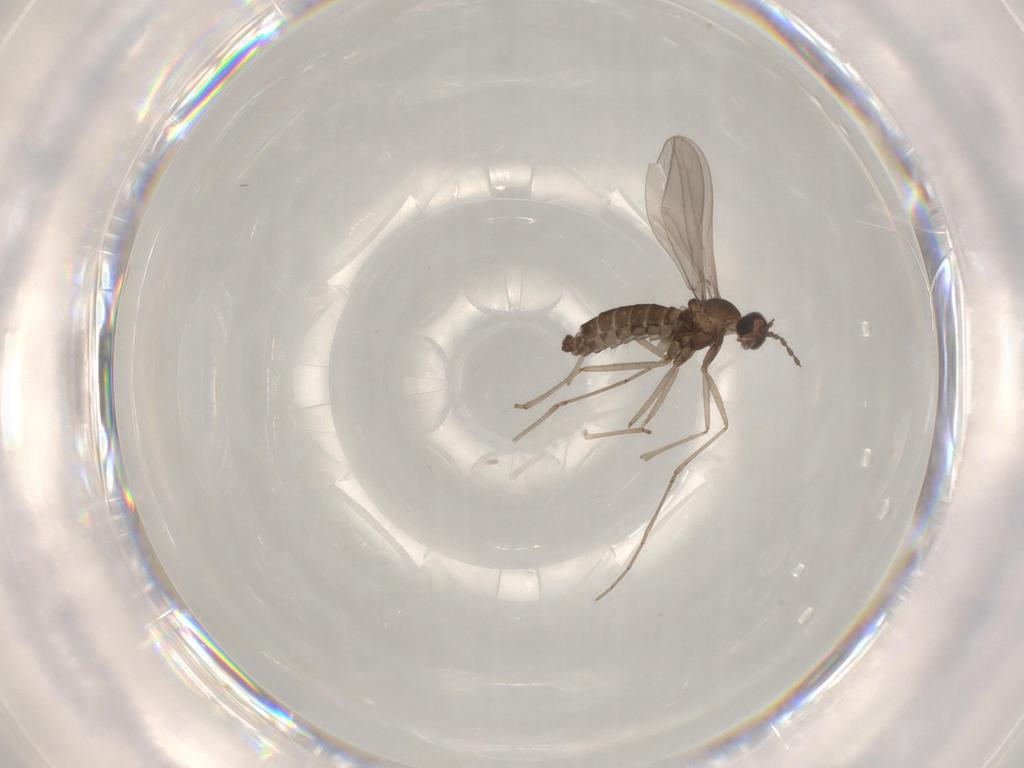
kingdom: Animalia
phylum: Arthropoda
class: Insecta
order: Diptera
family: Cecidomyiidae
